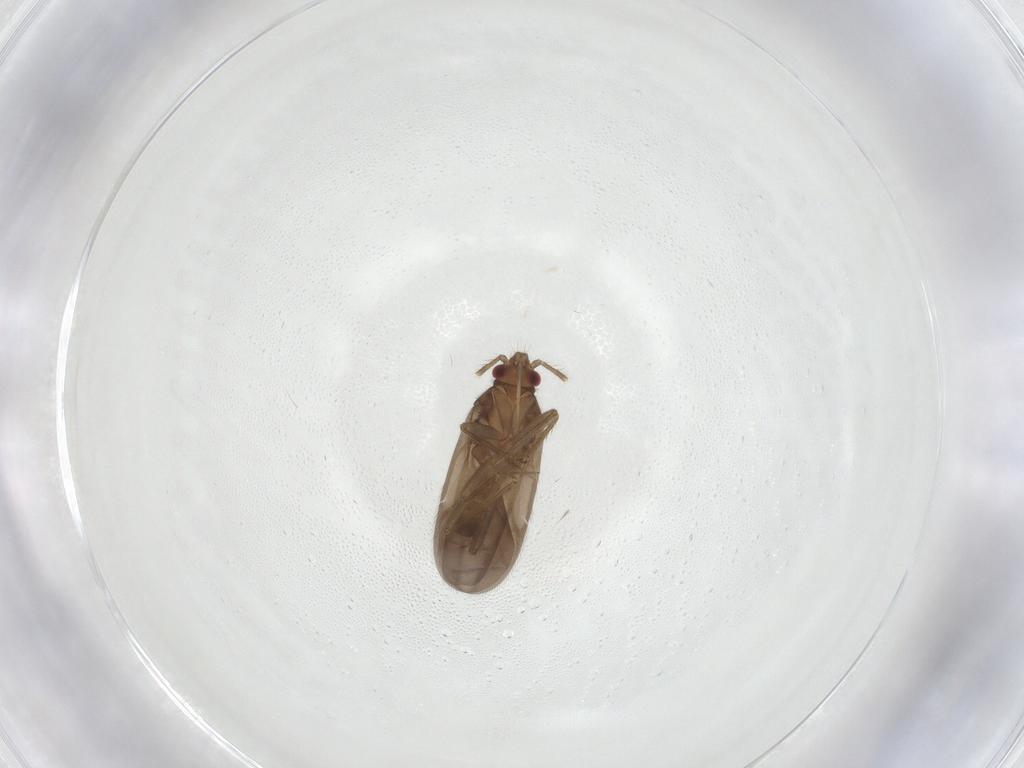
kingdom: Animalia
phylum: Arthropoda
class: Insecta
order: Hemiptera
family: Ceratocombidae
